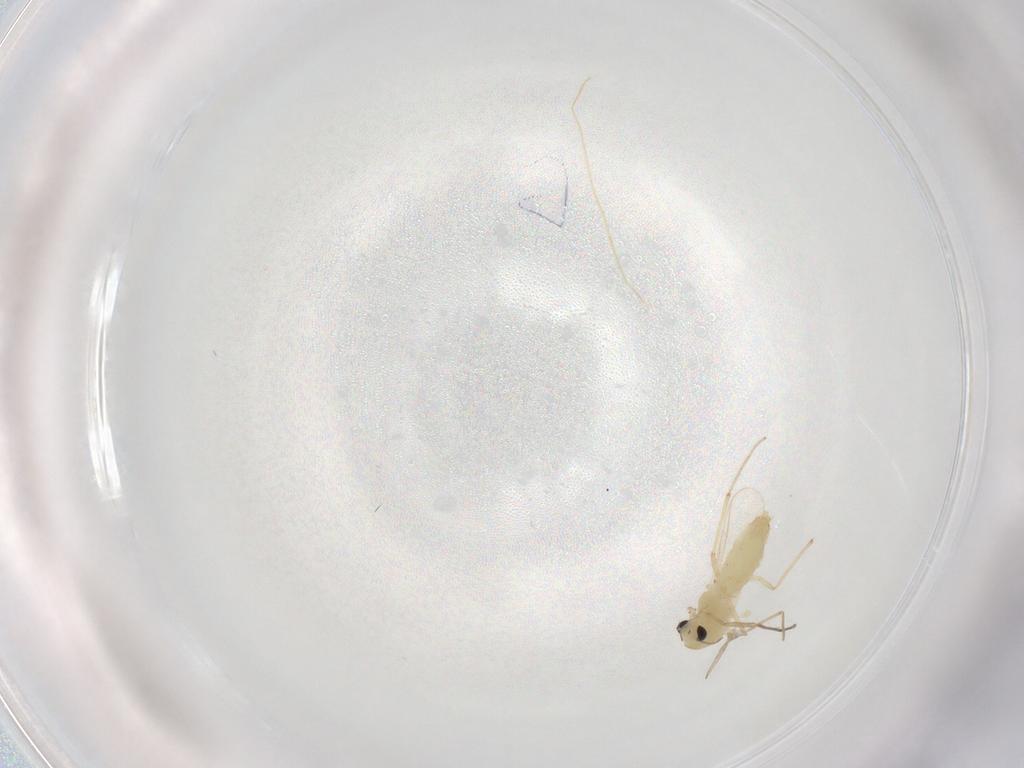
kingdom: Animalia
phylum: Arthropoda
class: Insecta
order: Diptera
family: Chironomidae
